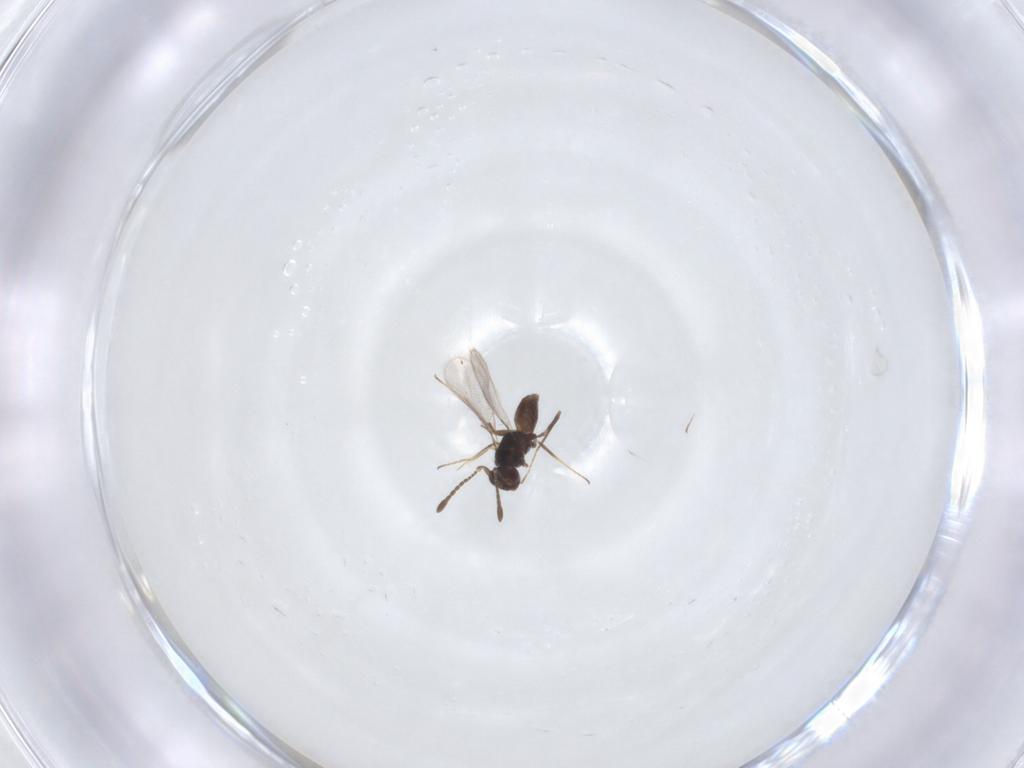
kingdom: Animalia
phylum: Arthropoda
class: Insecta
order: Hymenoptera
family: Mymaridae
